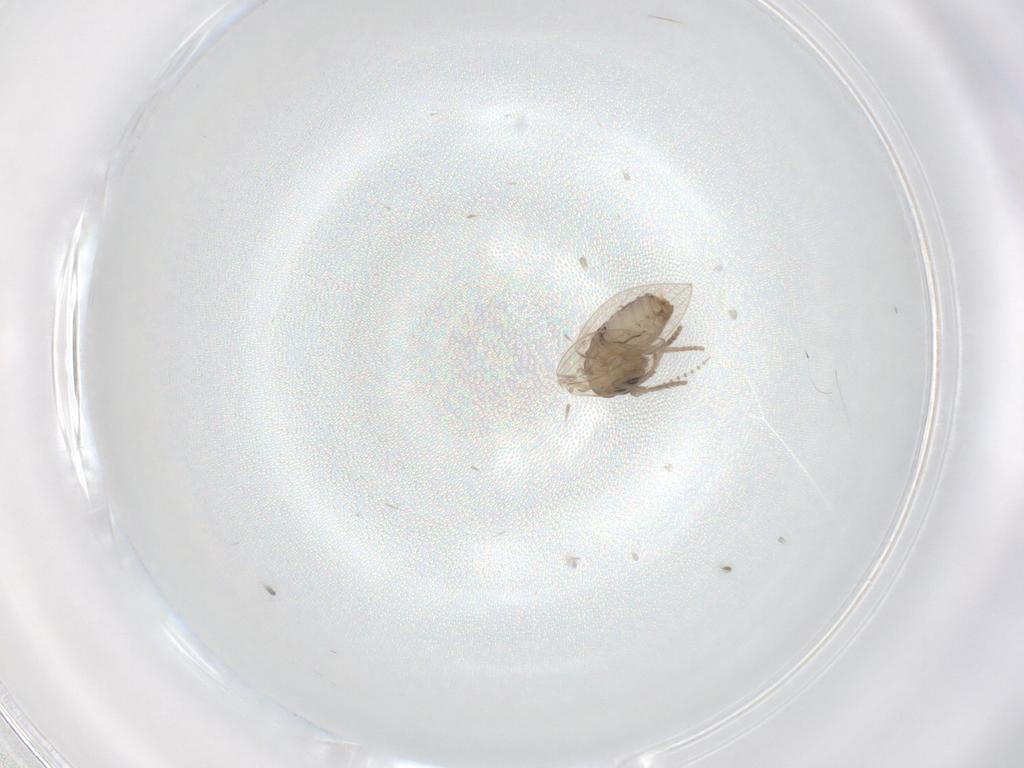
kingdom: Animalia
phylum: Arthropoda
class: Insecta
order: Diptera
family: Psychodidae
